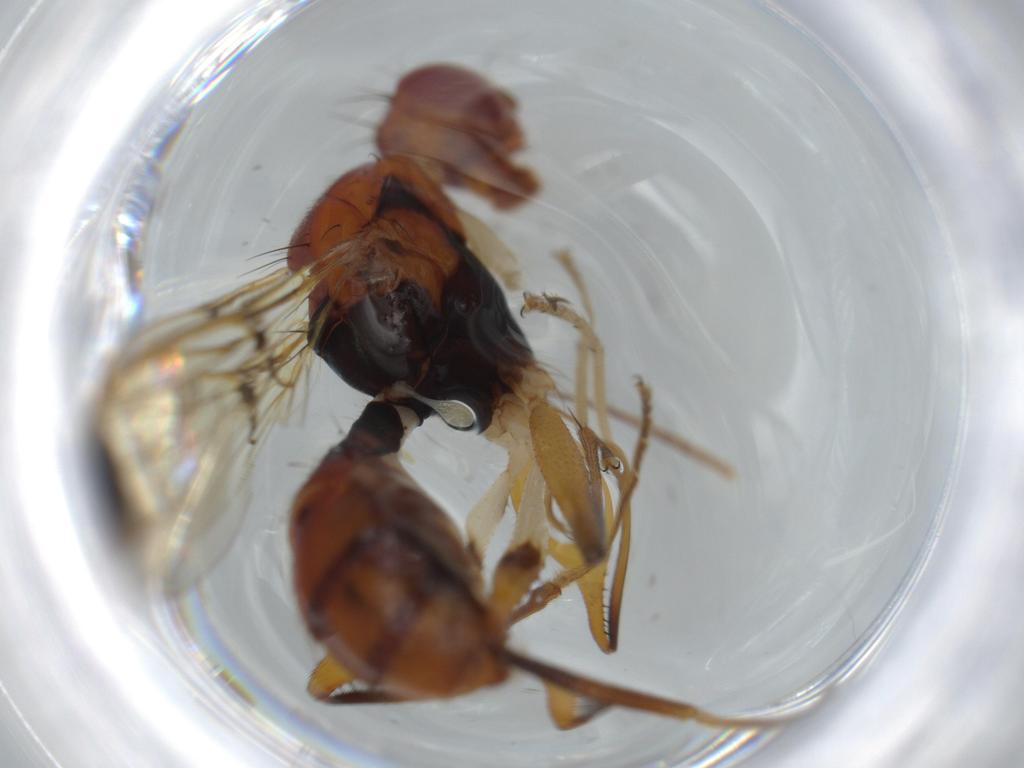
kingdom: Animalia
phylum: Arthropoda
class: Insecta
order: Diptera
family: Richardiidae
